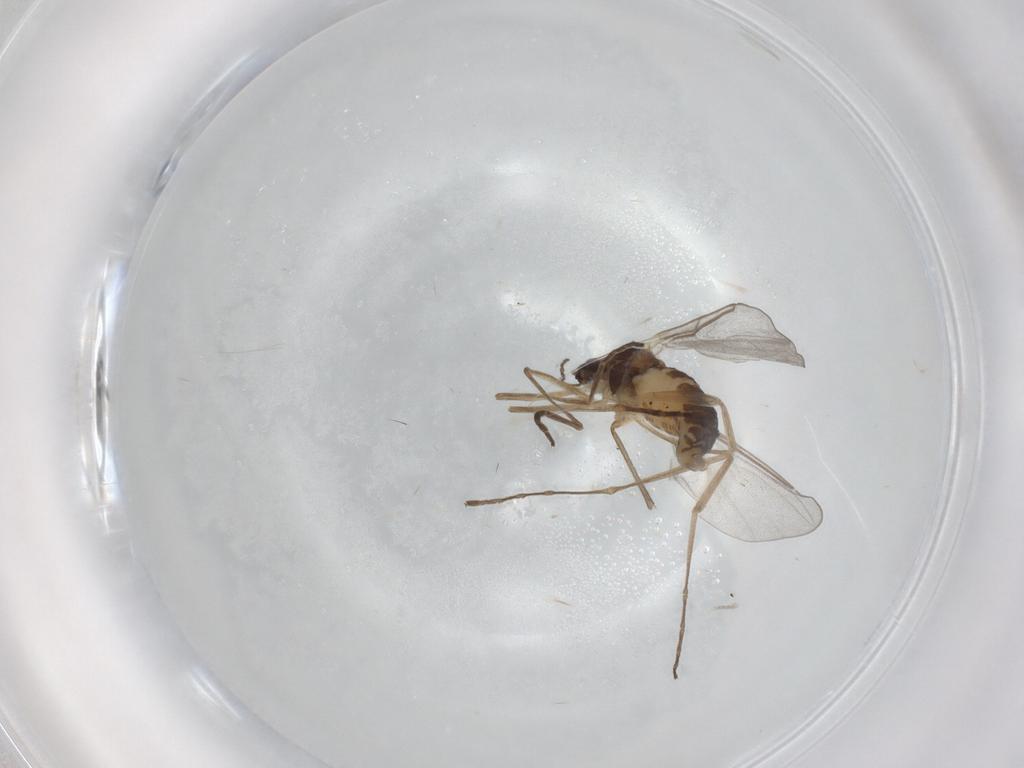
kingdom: Animalia
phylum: Arthropoda
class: Insecta
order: Diptera
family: Cecidomyiidae
